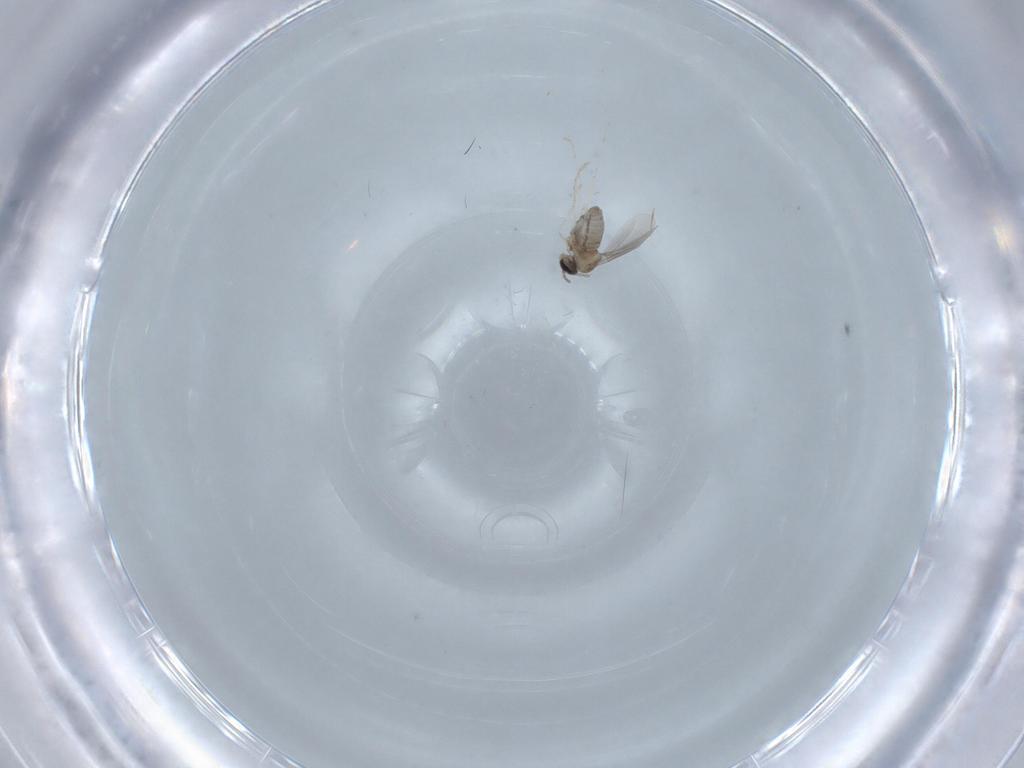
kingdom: Animalia
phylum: Arthropoda
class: Insecta
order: Diptera
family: Cecidomyiidae
